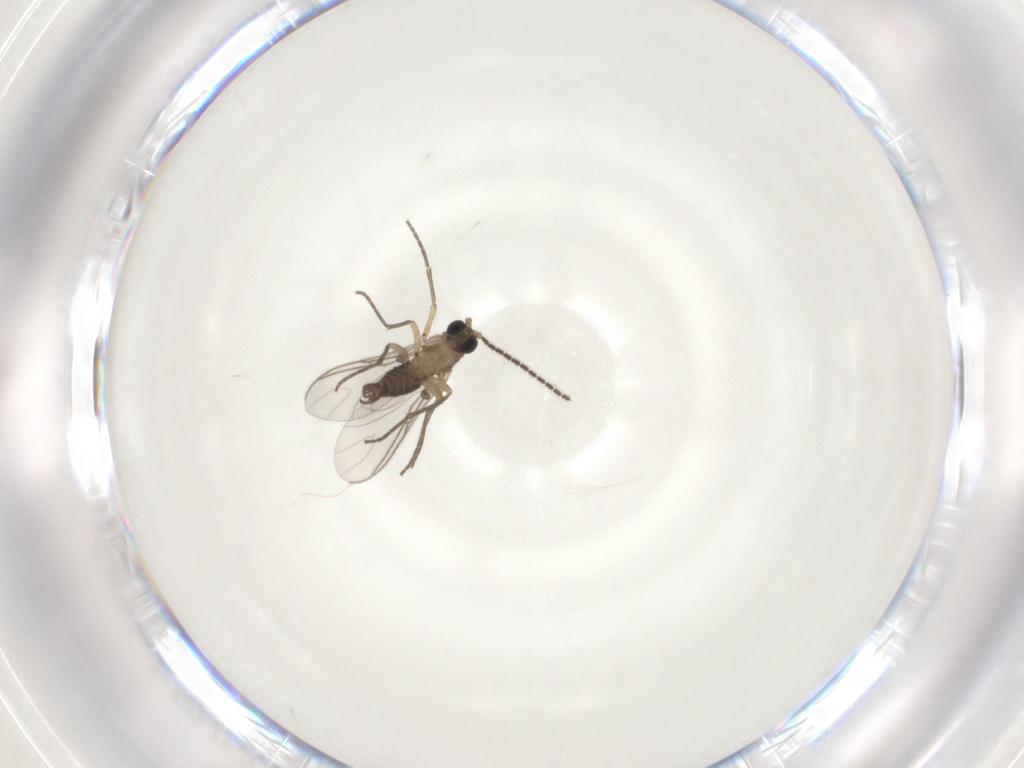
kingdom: Animalia
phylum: Arthropoda
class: Insecta
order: Diptera
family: Sciaridae
